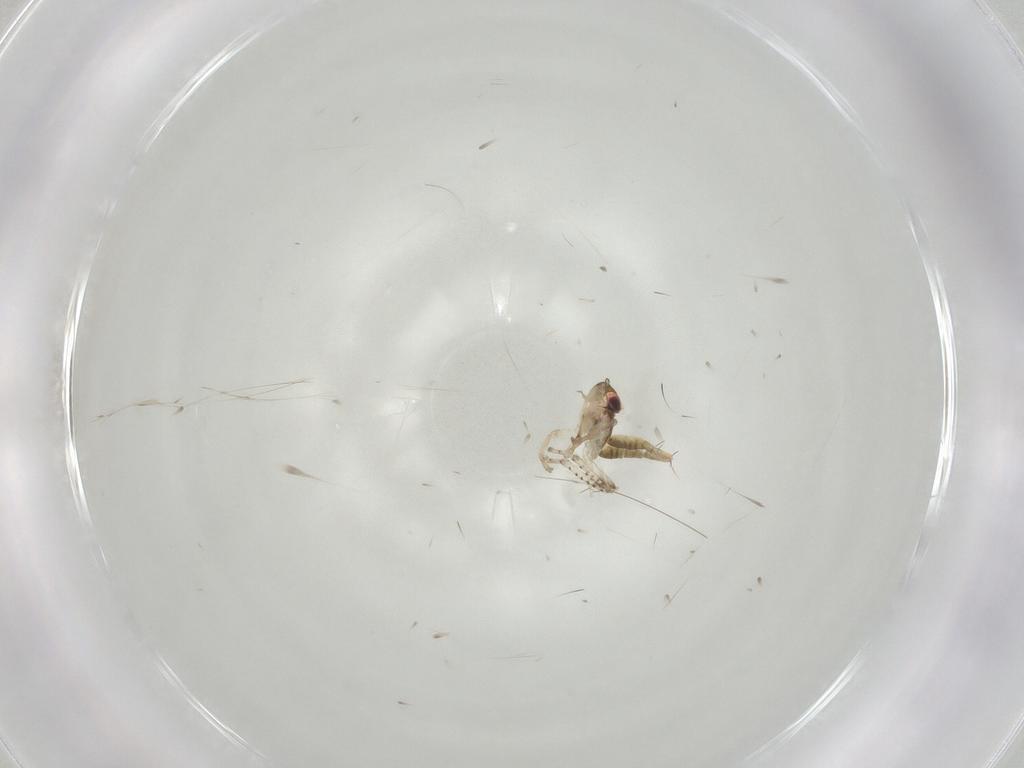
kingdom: Animalia
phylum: Arthropoda
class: Insecta
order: Hemiptera
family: Cicadellidae
